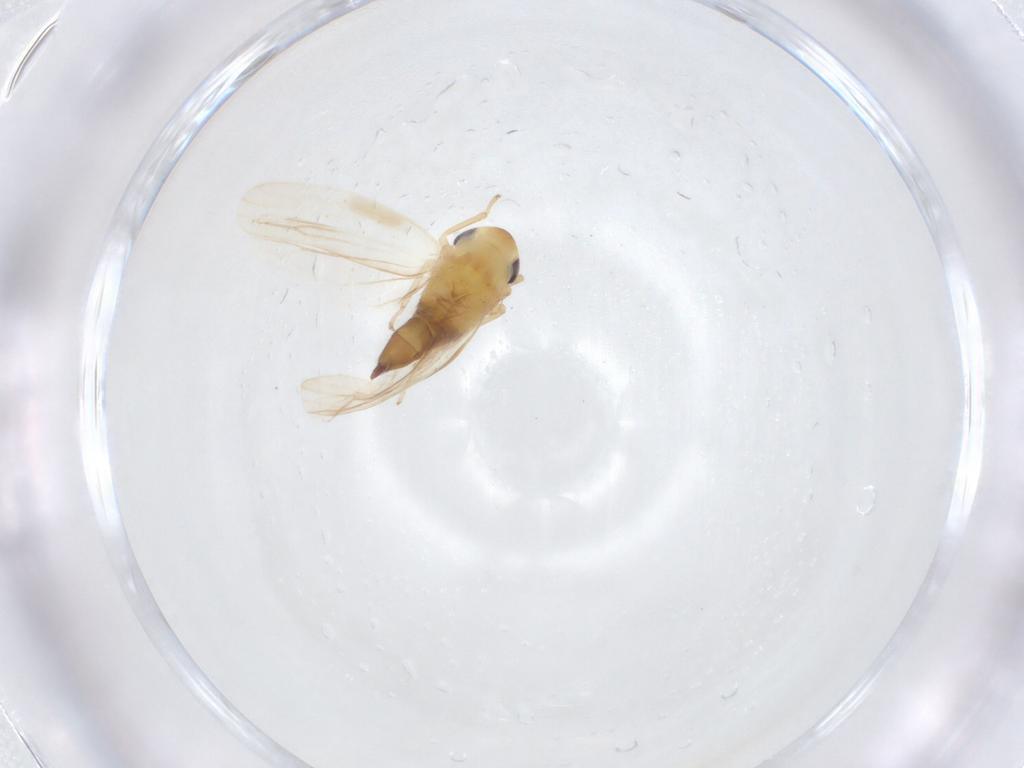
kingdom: Animalia
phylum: Arthropoda
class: Insecta
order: Hemiptera
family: Cicadellidae
